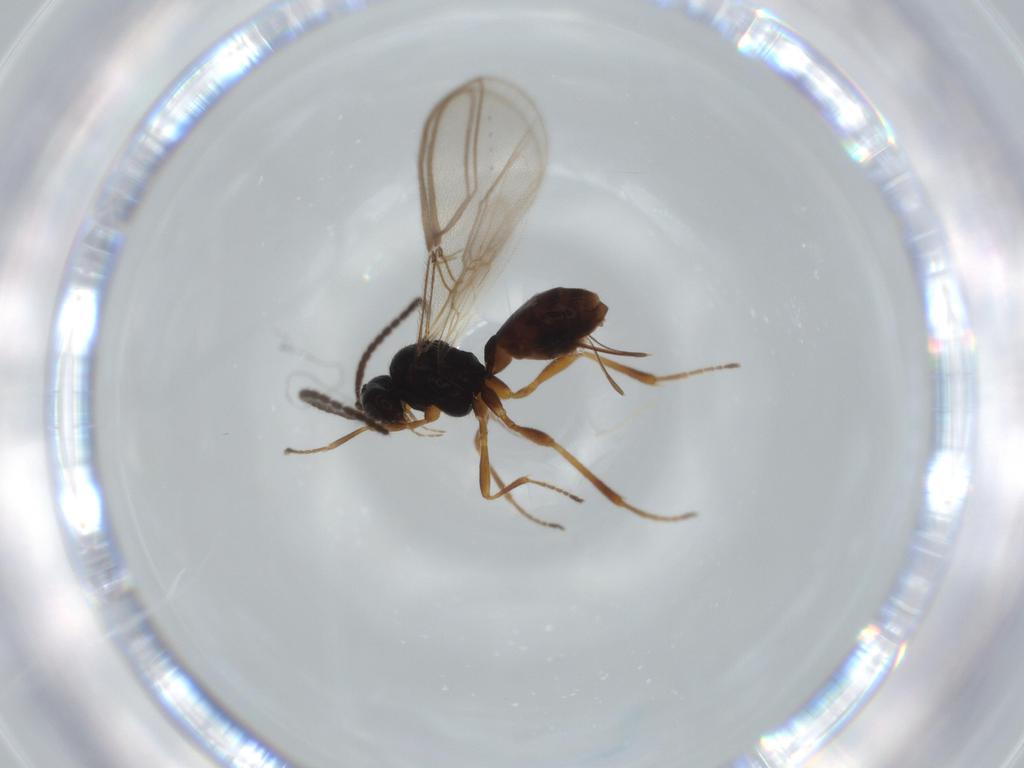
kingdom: Animalia
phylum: Arthropoda
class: Insecta
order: Hymenoptera
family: Braconidae
